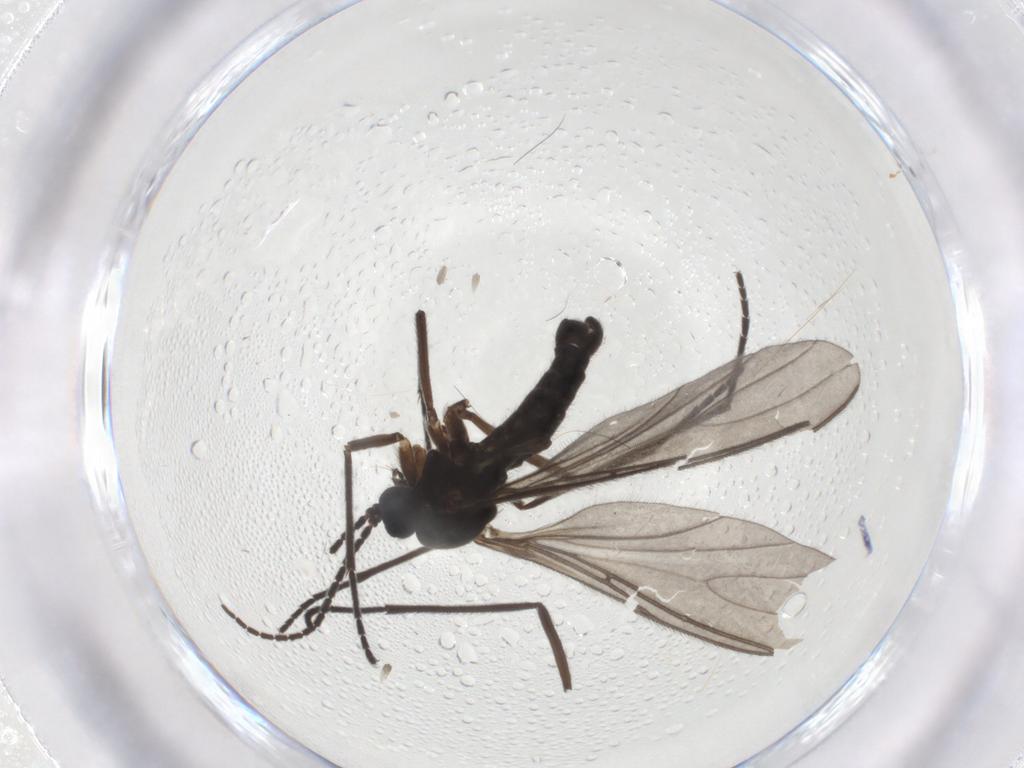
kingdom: Animalia
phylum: Arthropoda
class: Insecta
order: Diptera
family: Sciaridae
